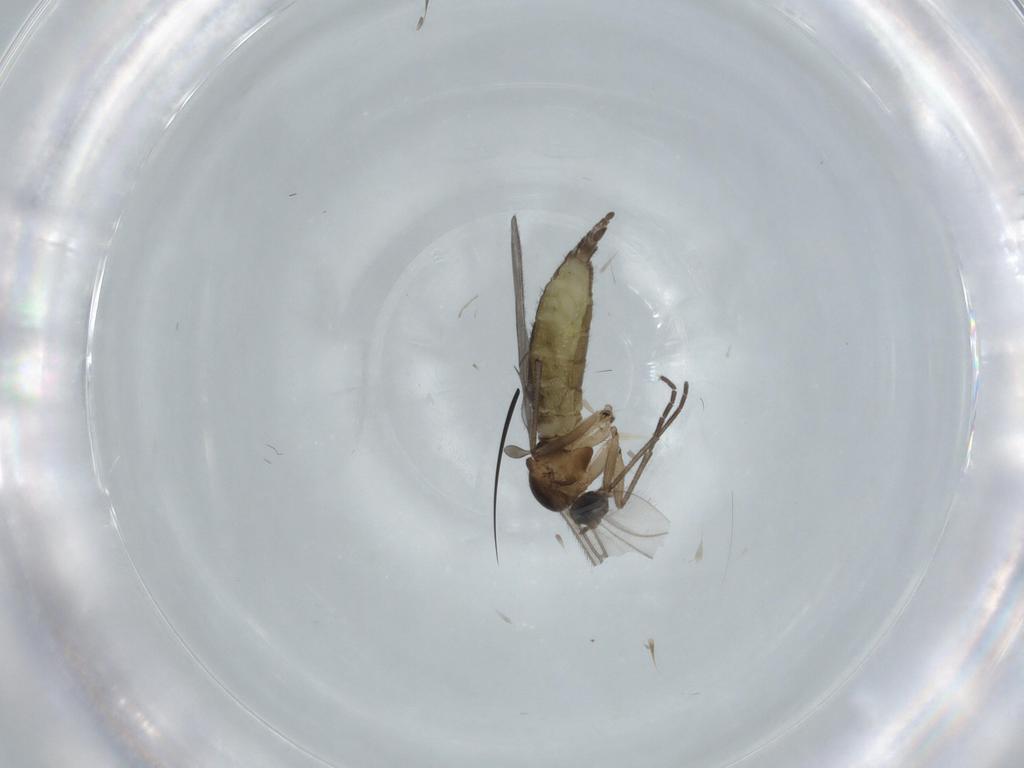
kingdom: Animalia
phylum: Arthropoda
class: Insecta
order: Diptera
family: Sciaridae
